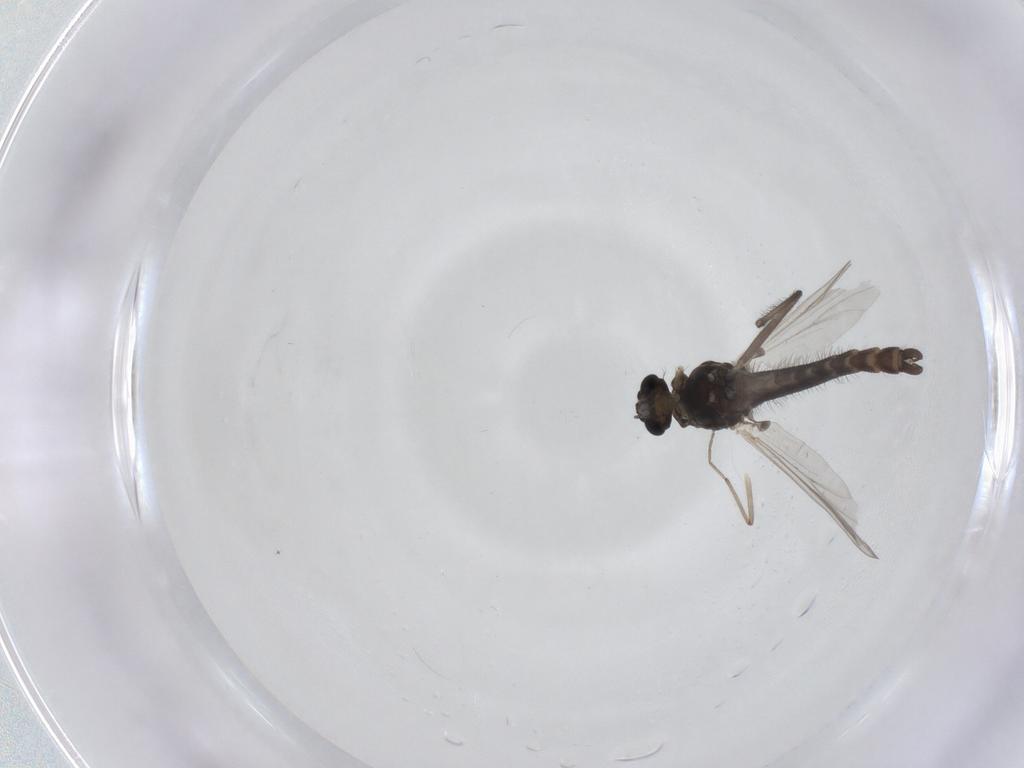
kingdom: Animalia
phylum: Arthropoda
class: Insecta
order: Diptera
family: Chironomidae
